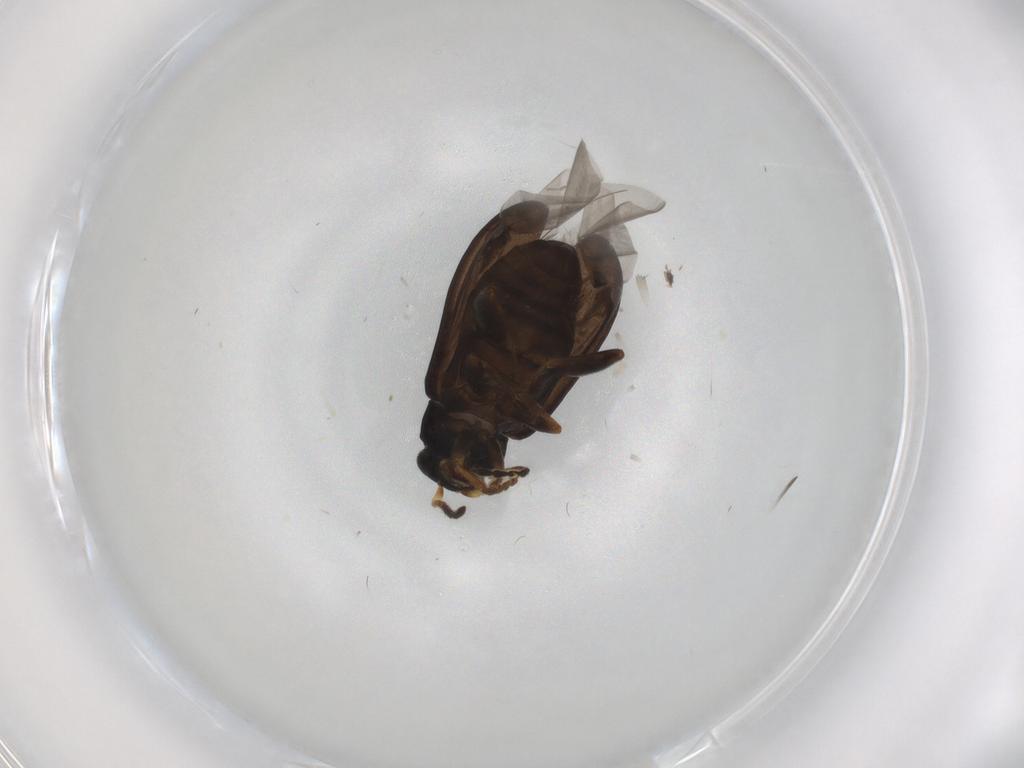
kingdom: Animalia
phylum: Arthropoda
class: Insecta
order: Coleoptera
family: Chrysomelidae
